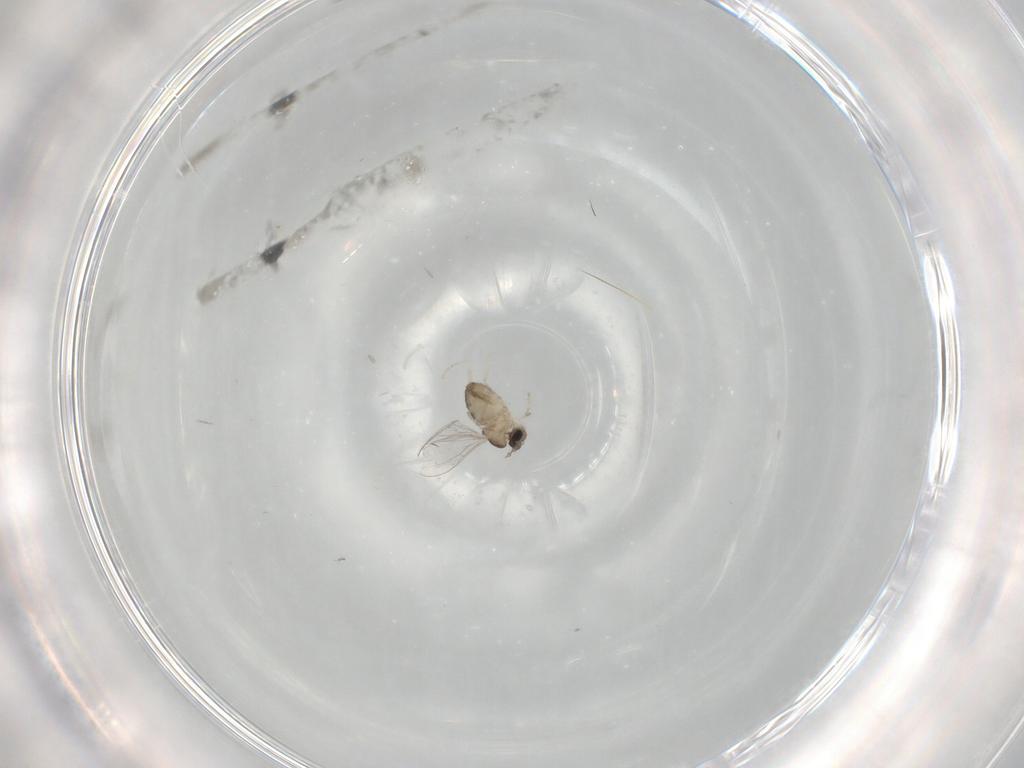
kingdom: Animalia
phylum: Arthropoda
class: Insecta
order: Diptera
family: Cecidomyiidae
